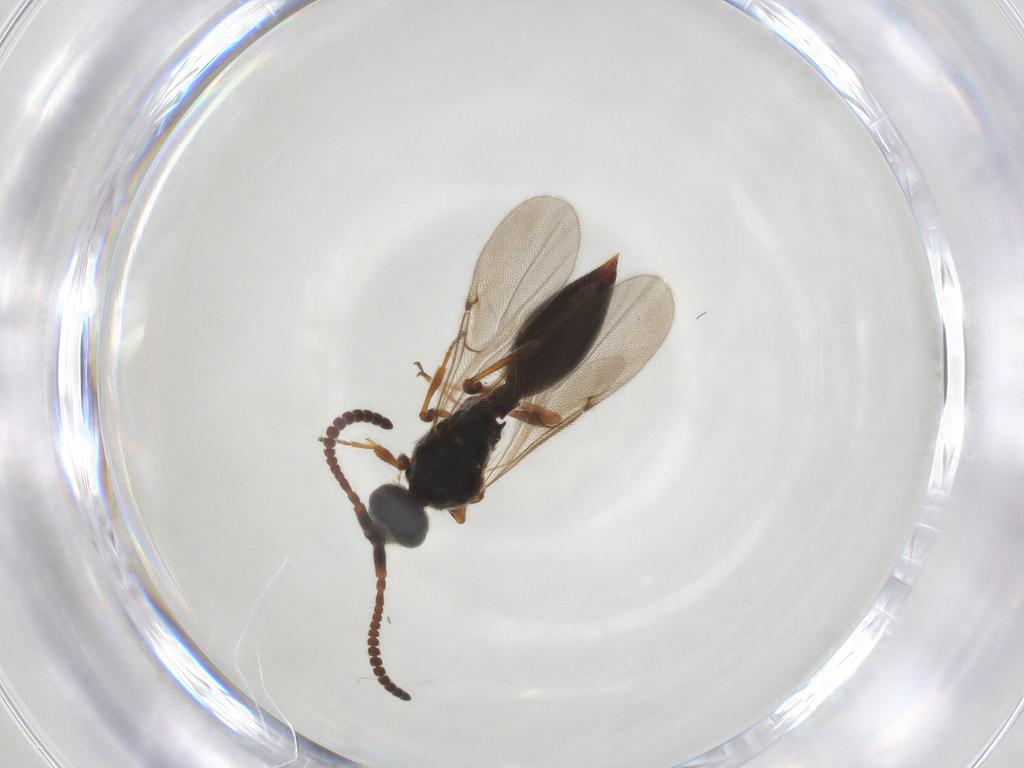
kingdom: Animalia
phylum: Arthropoda
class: Insecta
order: Hymenoptera
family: Diapriidae
